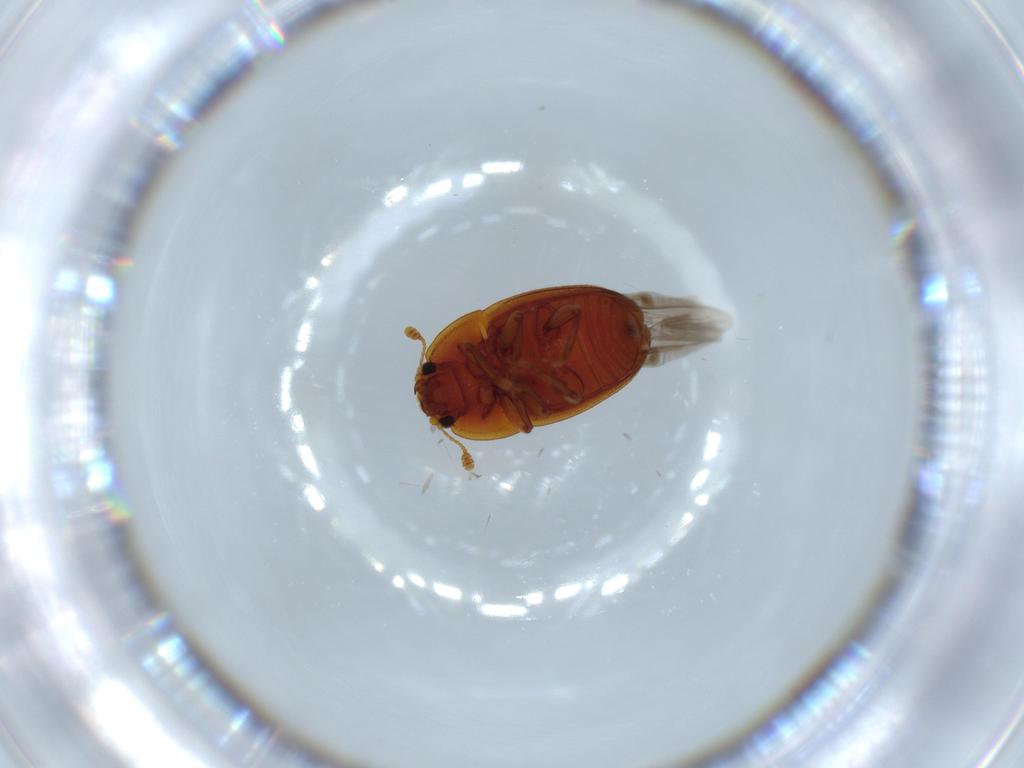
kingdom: Animalia
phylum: Arthropoda
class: Insecta
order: Coleoptera
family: Nitidulidae
